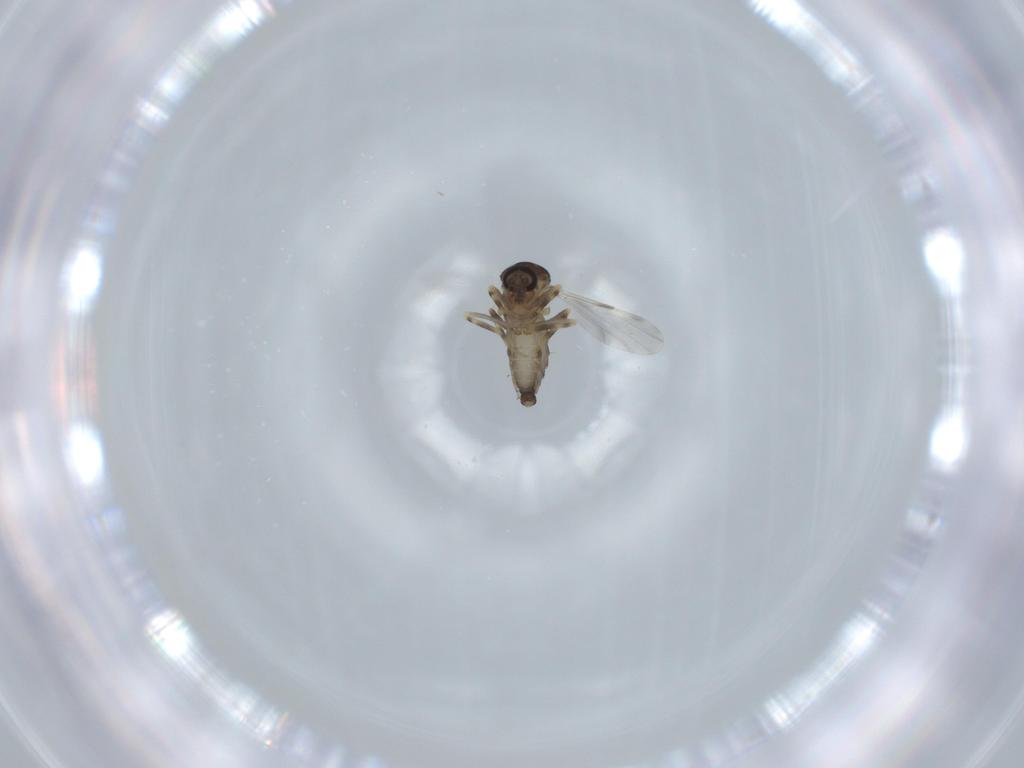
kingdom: Animalia
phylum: Arthropoda
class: Insecta
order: Diptera
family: Ceratopogonidae
